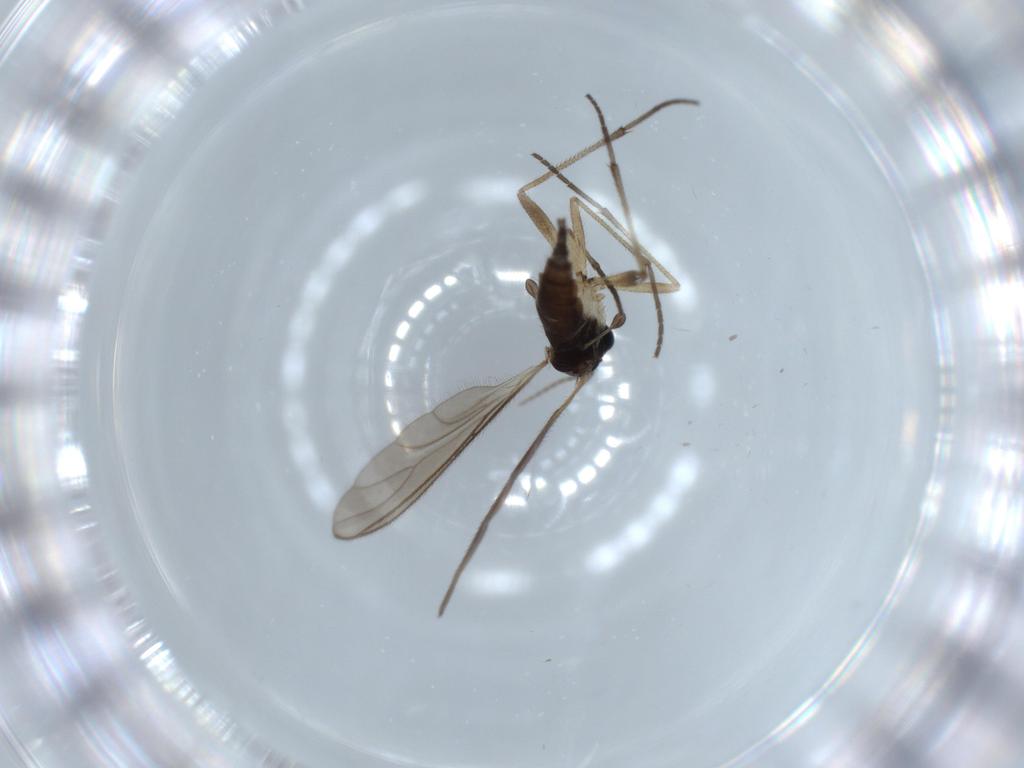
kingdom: Animalia
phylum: Arthropoda
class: Insecta
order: Diptera
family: Sciaridae
